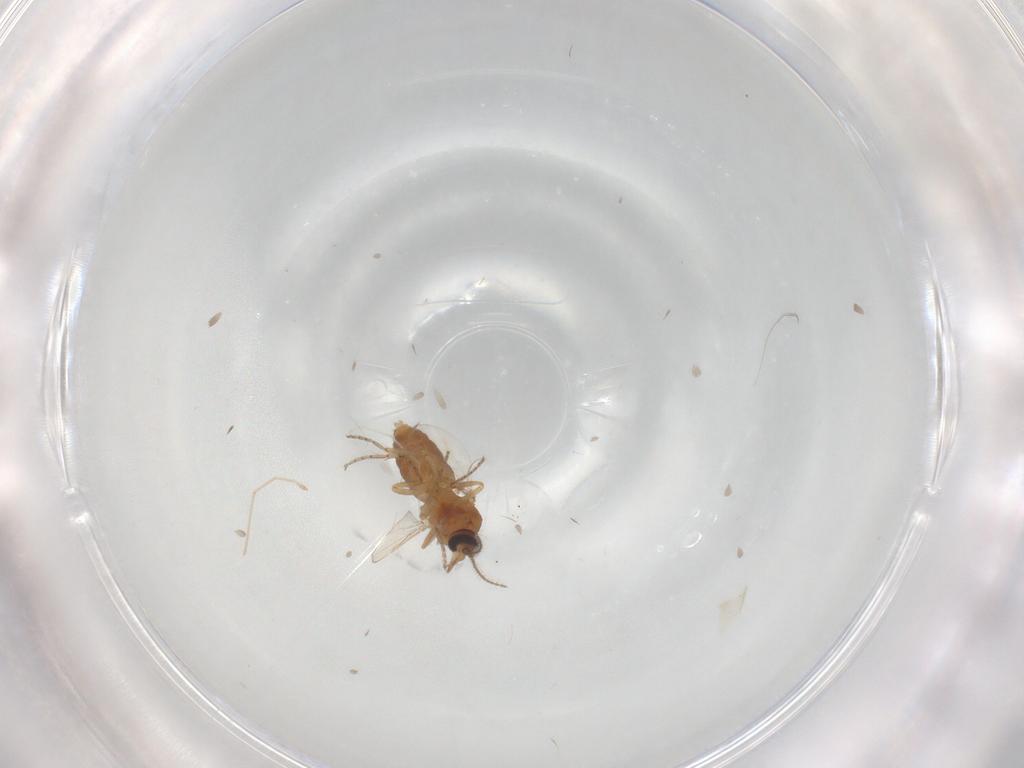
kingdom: Animalia
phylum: Arthropoda
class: Insecta
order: Diptera
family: Ceratopogonidae
